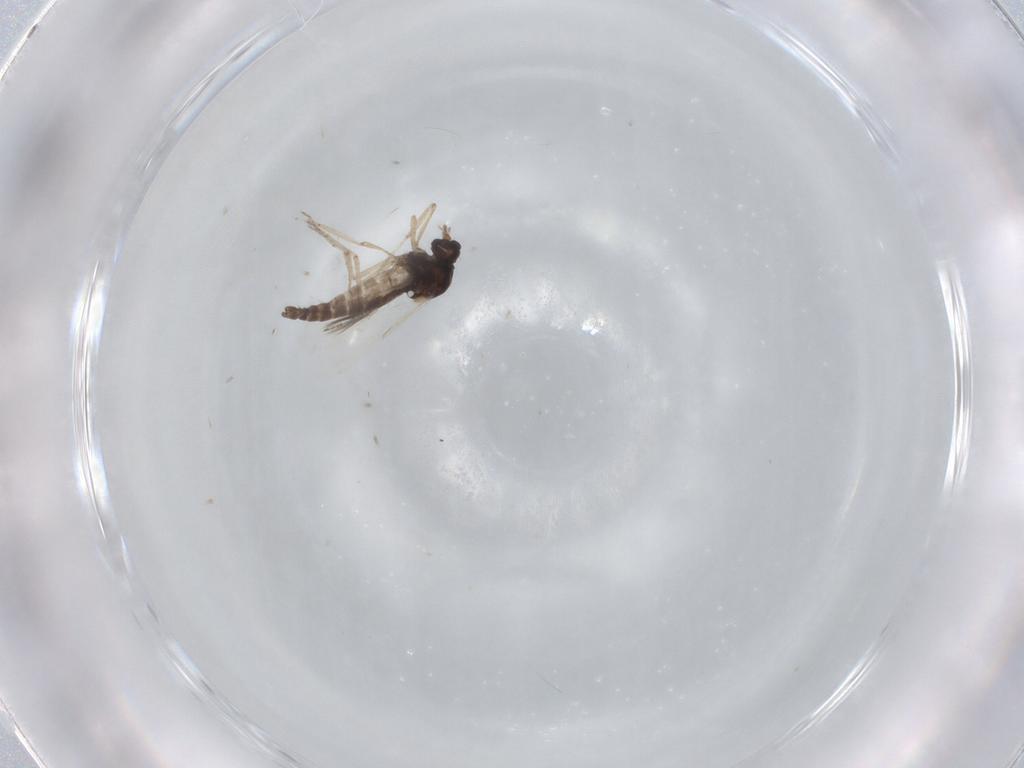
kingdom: Animalia
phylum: Arthropoda
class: Insecta
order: Diptera
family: Ceratopogonidae
